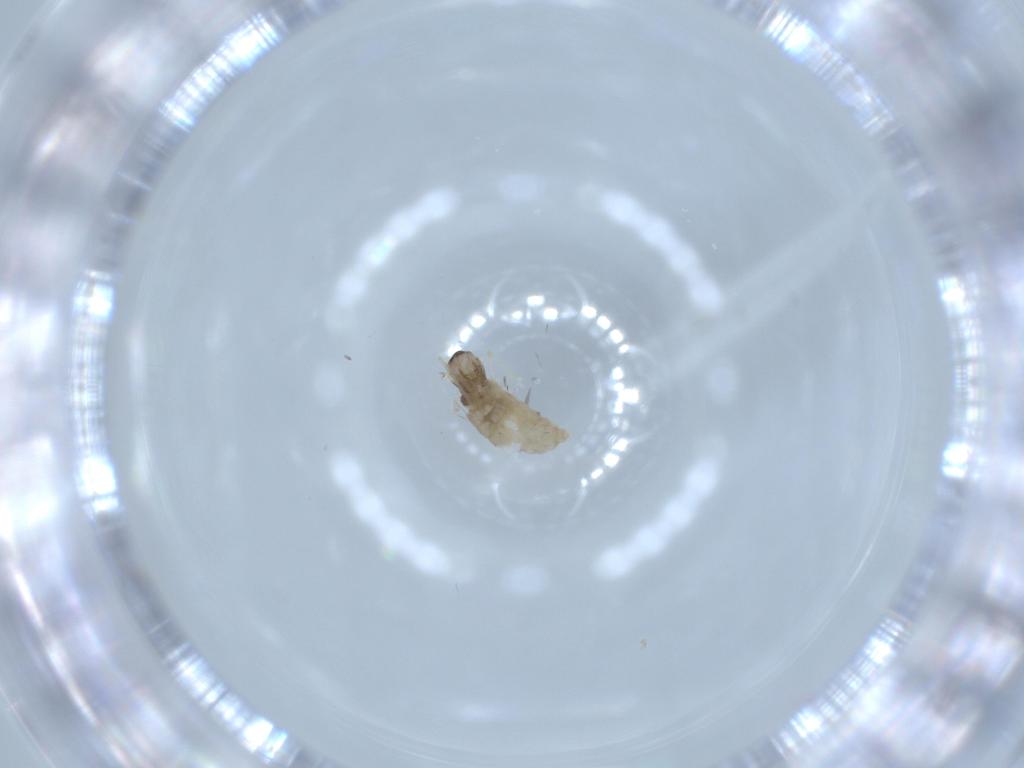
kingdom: Animalia
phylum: Arthropoda
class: Insecta
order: Diptera
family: Cecidomyiidae
